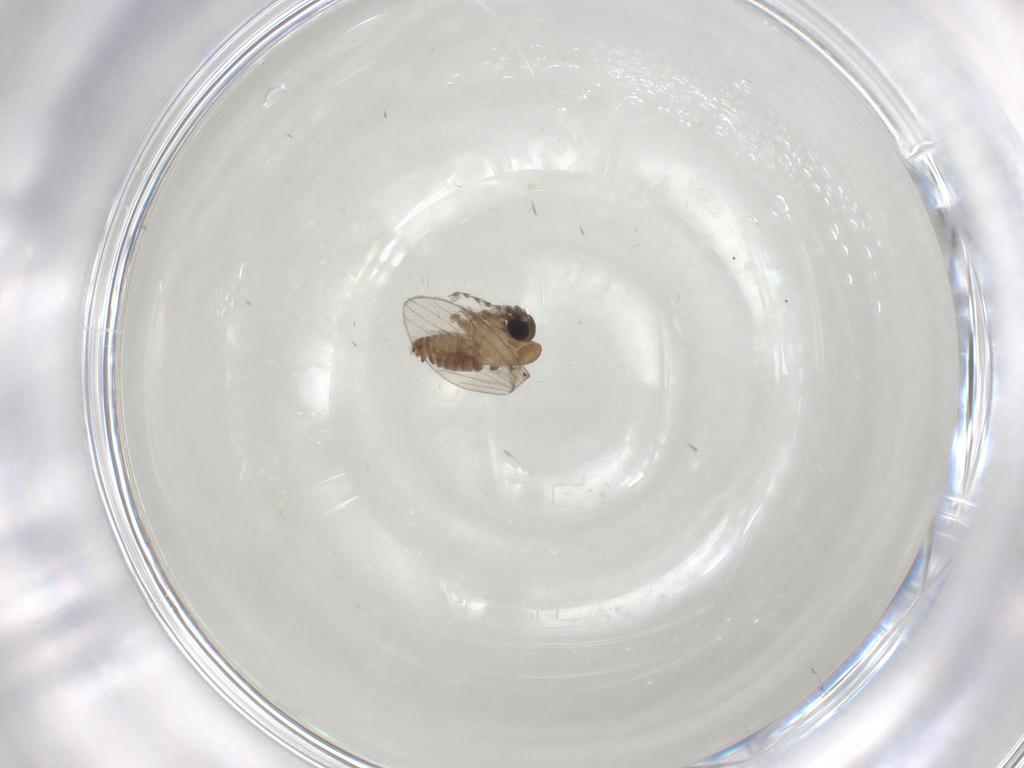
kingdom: Animalia
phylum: Arthropoda
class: Insecta
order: Diptera
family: Psychodidae
